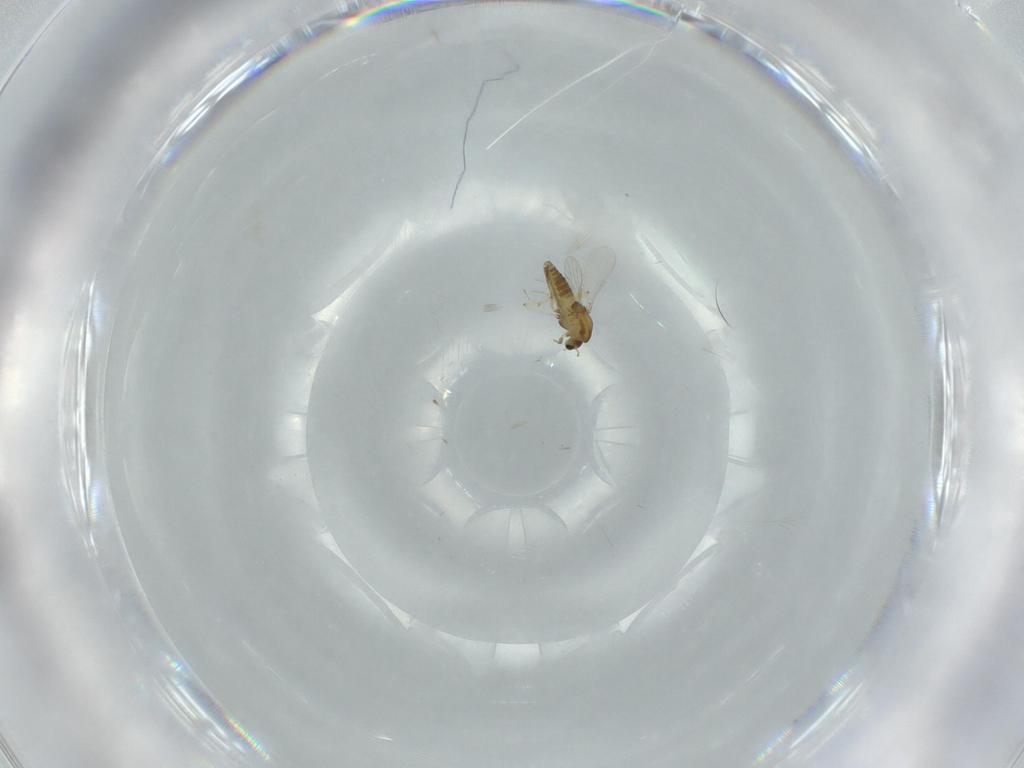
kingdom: Animalia
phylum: Arthropoda
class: Insecta
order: Diptera
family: Chironomidae
